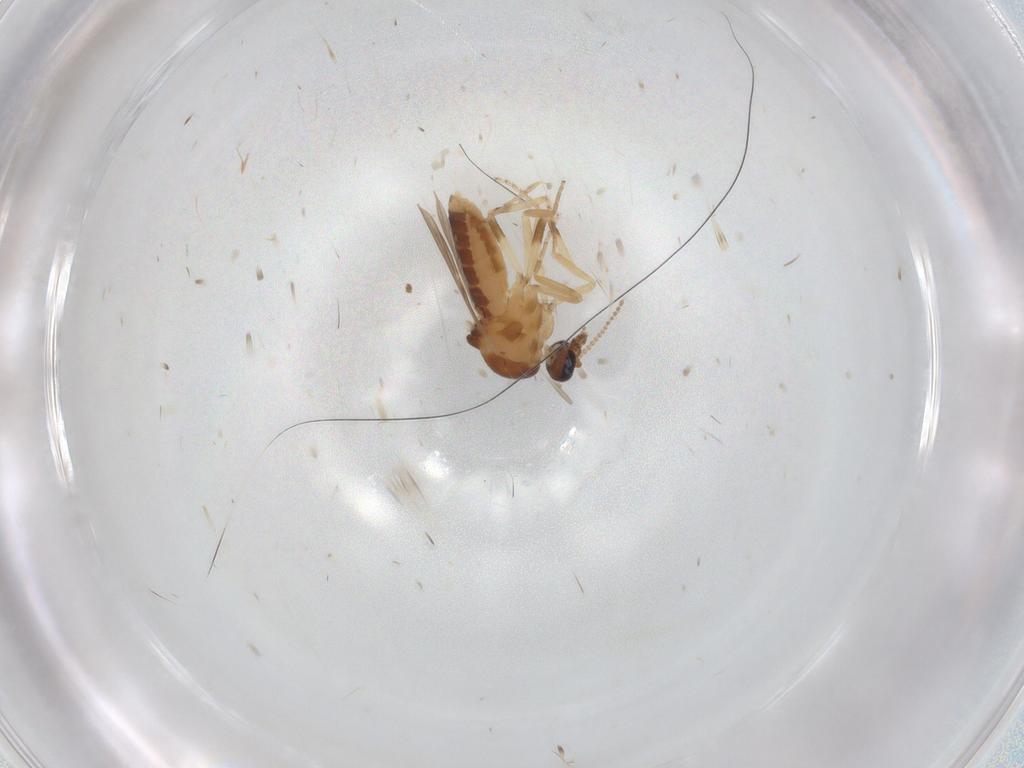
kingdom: Animalia
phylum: Arthropoda
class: Insecta
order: Diptera
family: Ceratopogonidae
